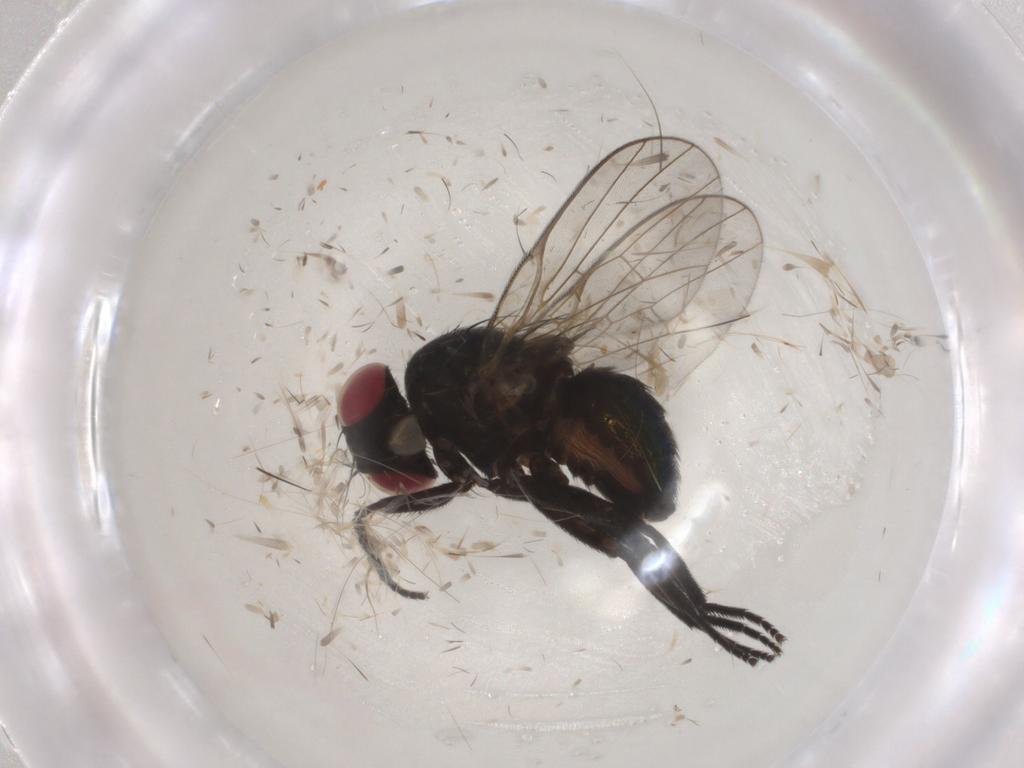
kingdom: Animalia
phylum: Arthropoda
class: Insecta
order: Diptera
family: Agromyzidae
